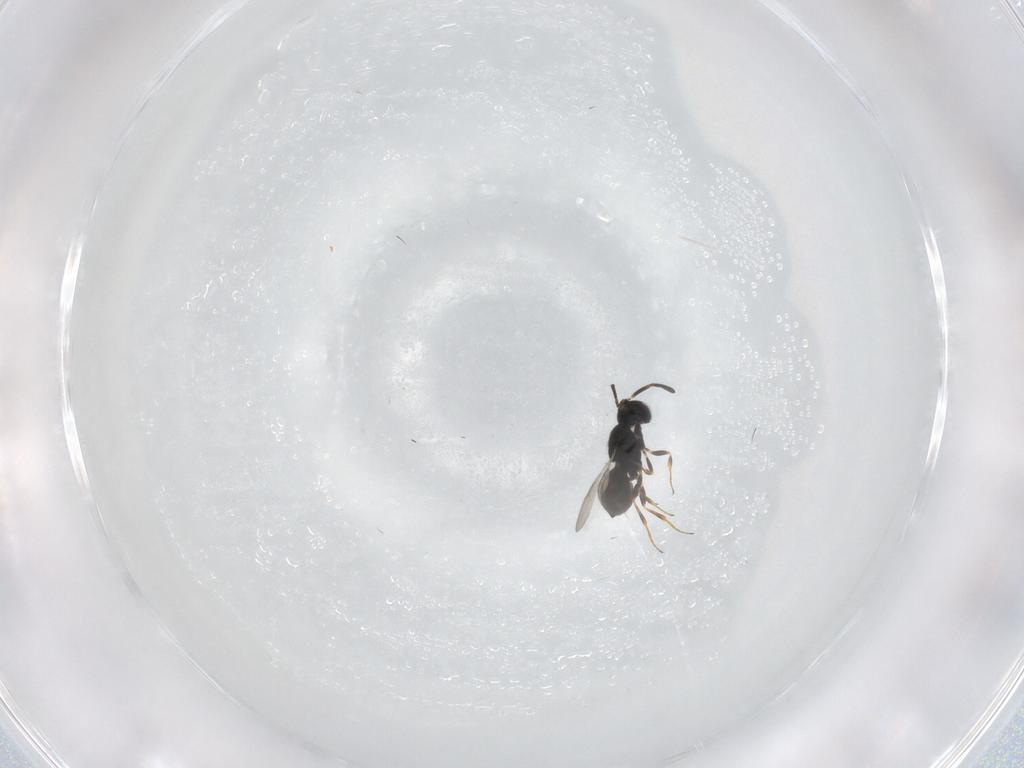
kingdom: Animalia
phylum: Arthropoda
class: Insecta
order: Hymenoptera
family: Scelionidae
